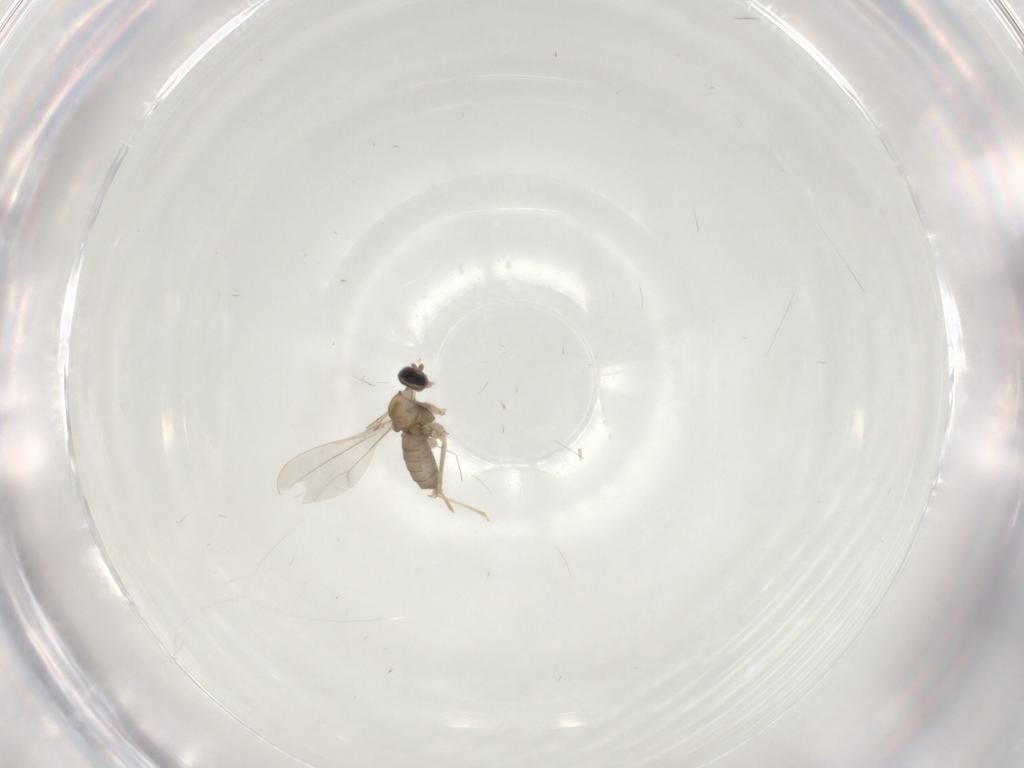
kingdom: Animalia
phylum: Arthropoda
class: Insecta
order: Diptera
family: Cecidomyiidae
